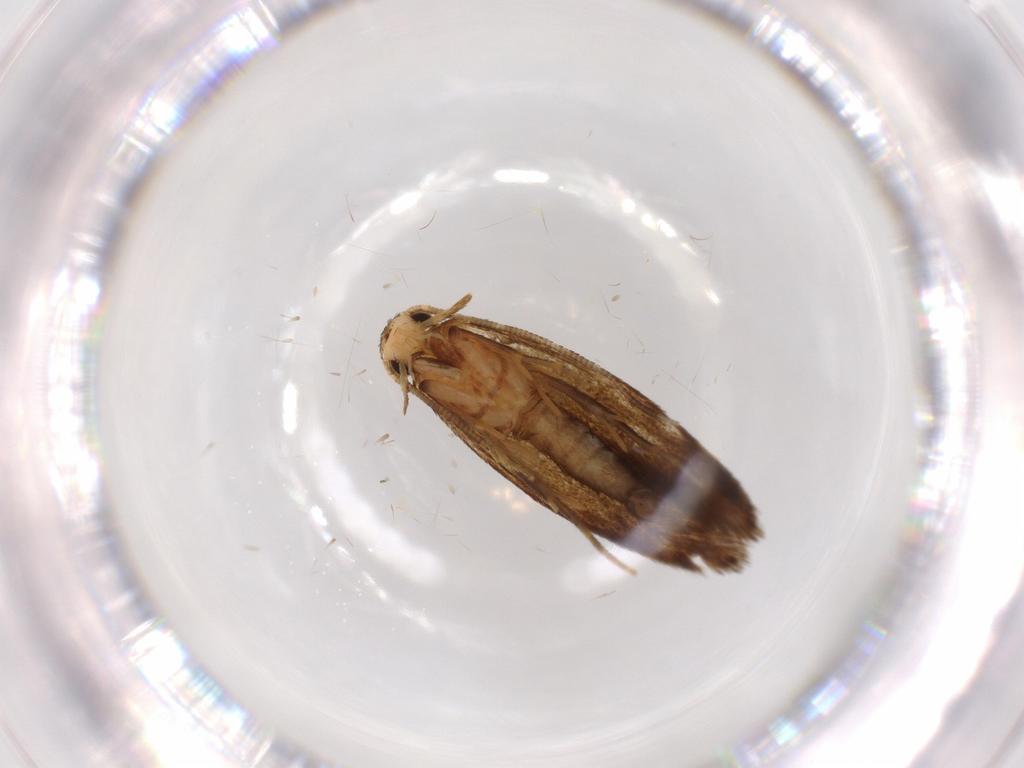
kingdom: Animalia
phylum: Arthropoda
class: Insecta
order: Lepidoptera
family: Tineidae
